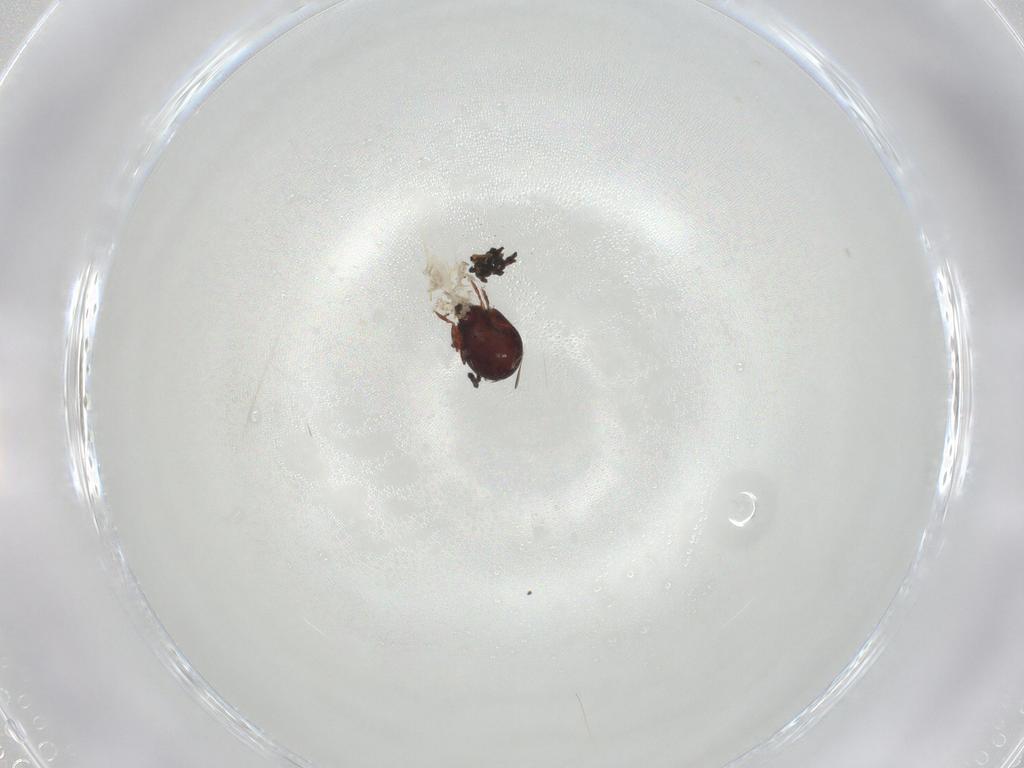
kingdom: Animalia
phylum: Arthropoda
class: Arachnida
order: Sarcoptiformes
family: Humerobatidae
